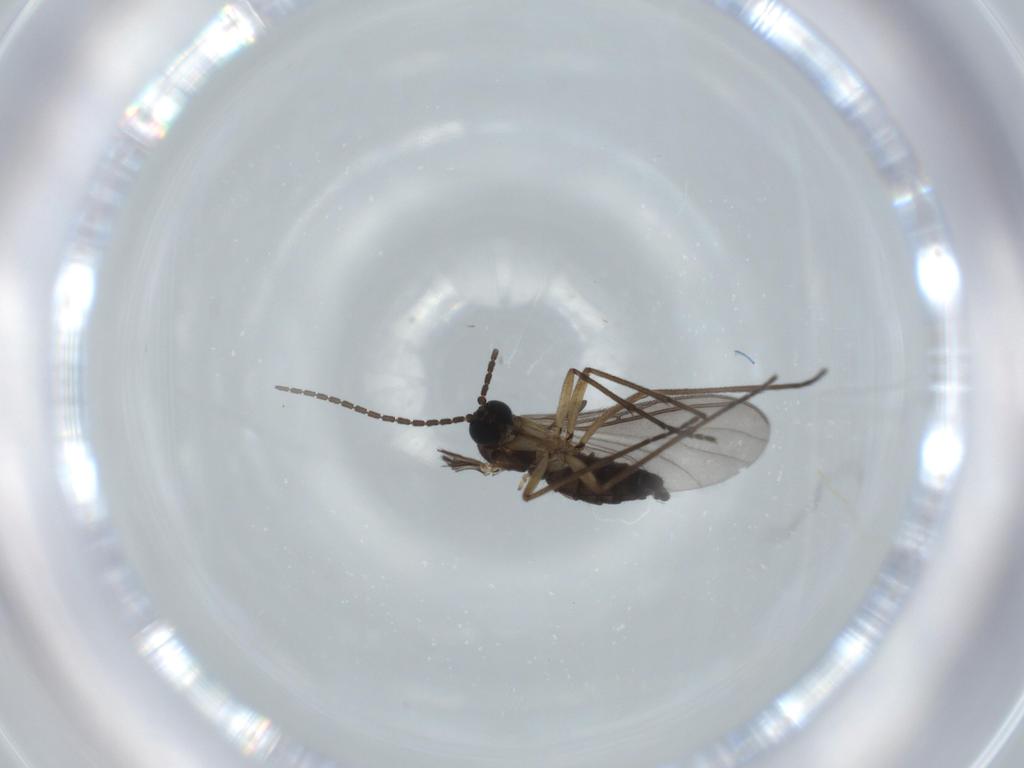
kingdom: Animalia
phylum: Arthropoda
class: Insecta
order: Diptera
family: Sciaridae
